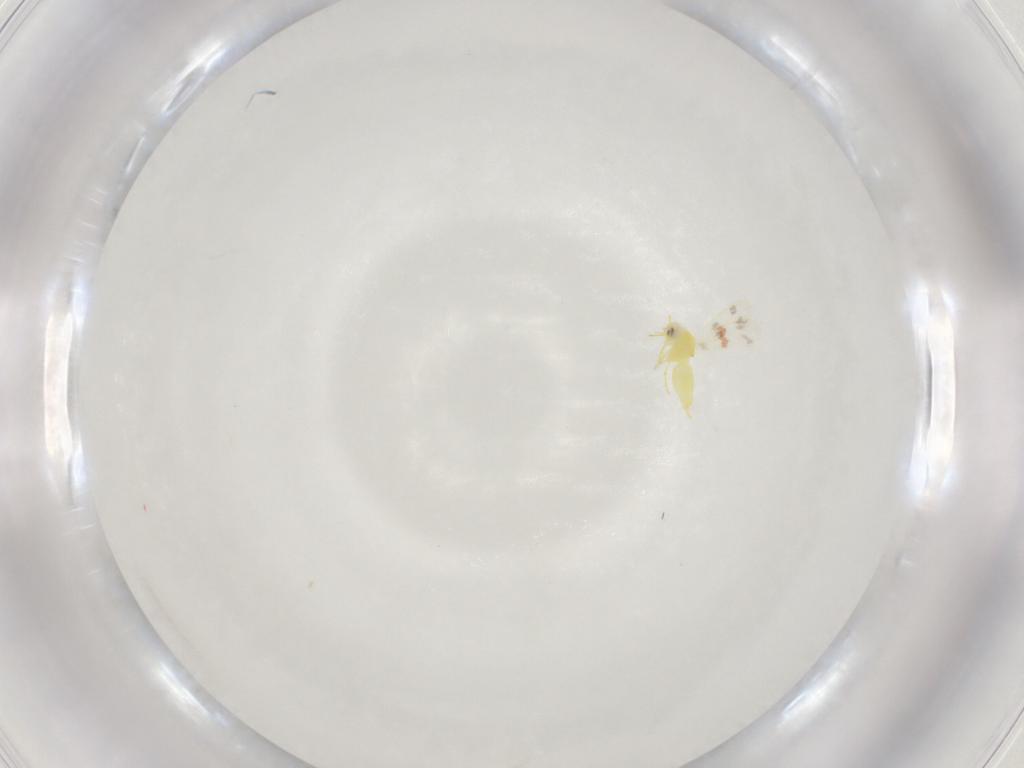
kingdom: Animalia
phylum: Arthropoda
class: Insecta
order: Hemiptera
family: Aleyrodidae
